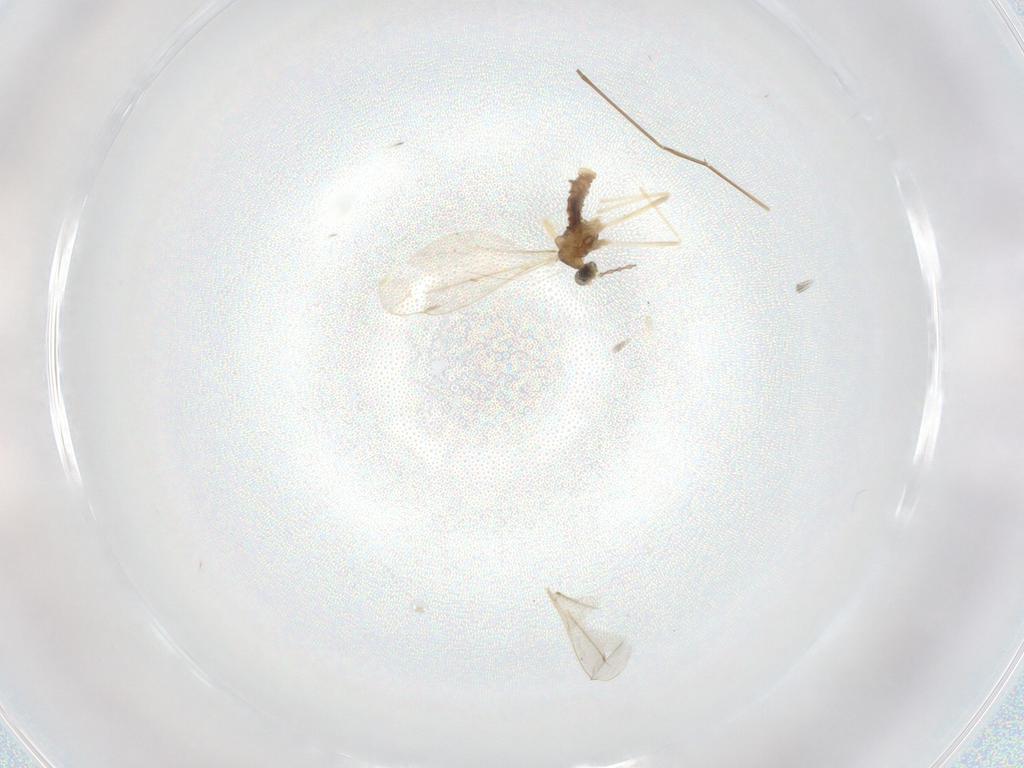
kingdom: Animalia
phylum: Arthropoda
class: Insecta
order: Diptera
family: Cecidomyiidae
